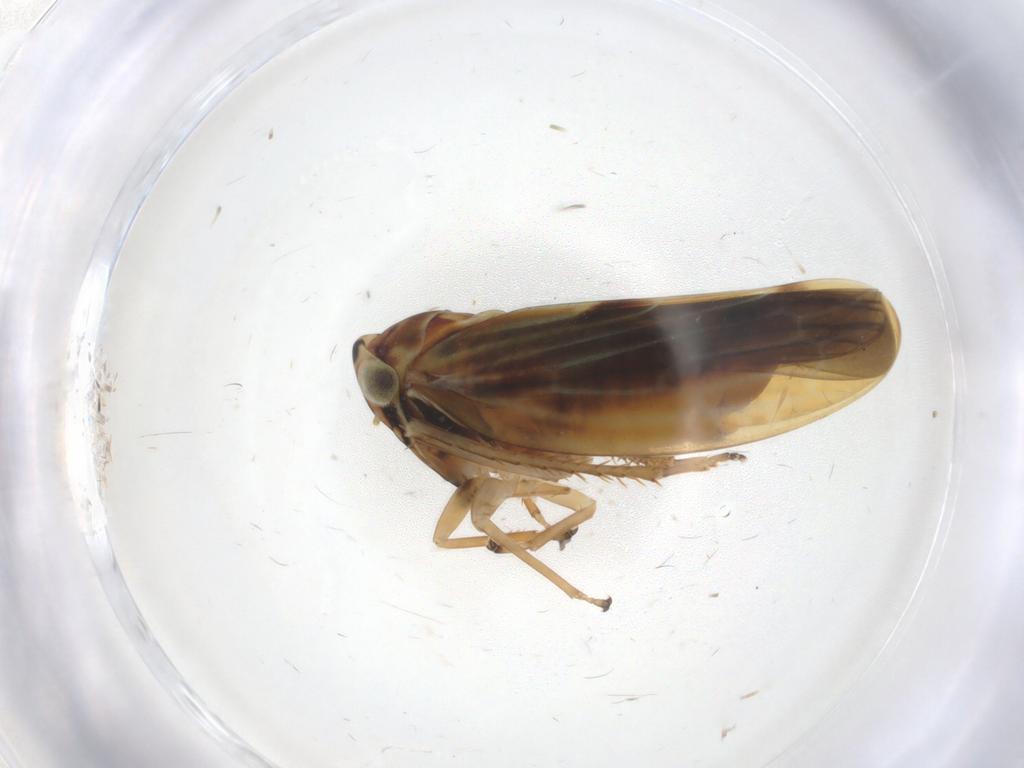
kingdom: Animalia
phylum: Arthropoda
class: Insecta
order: Hemiptera
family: Cicadellidae
